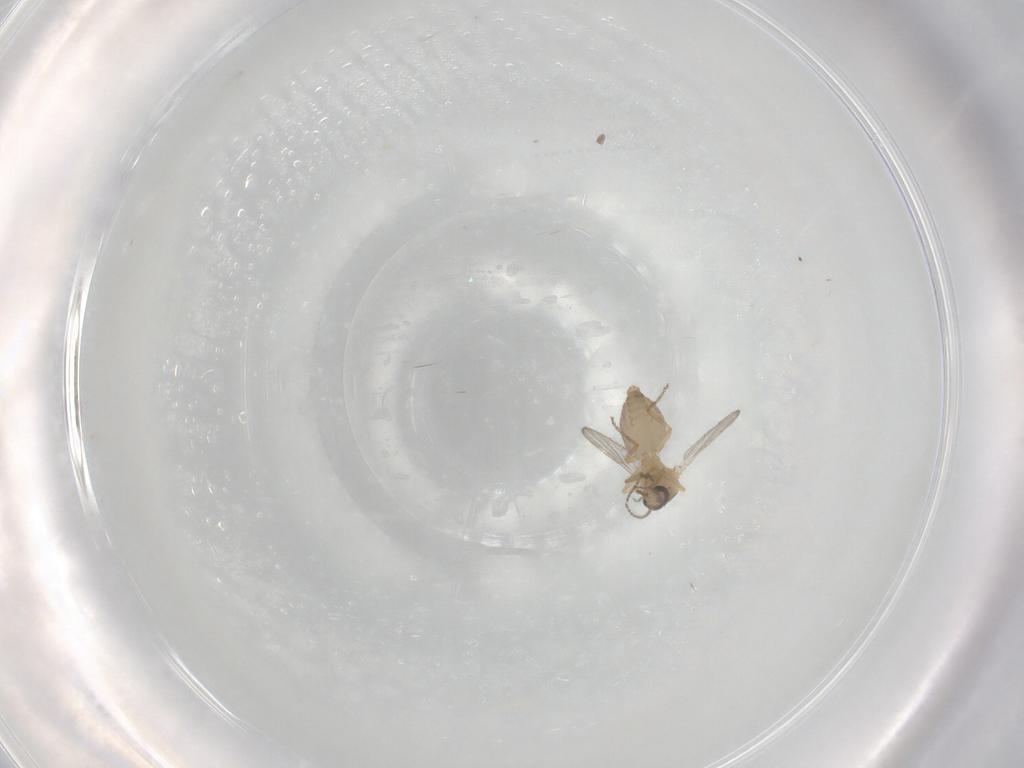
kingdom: Animalia
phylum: Arthropoda
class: Insecta
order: Diptera
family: Ceratopogonidae
